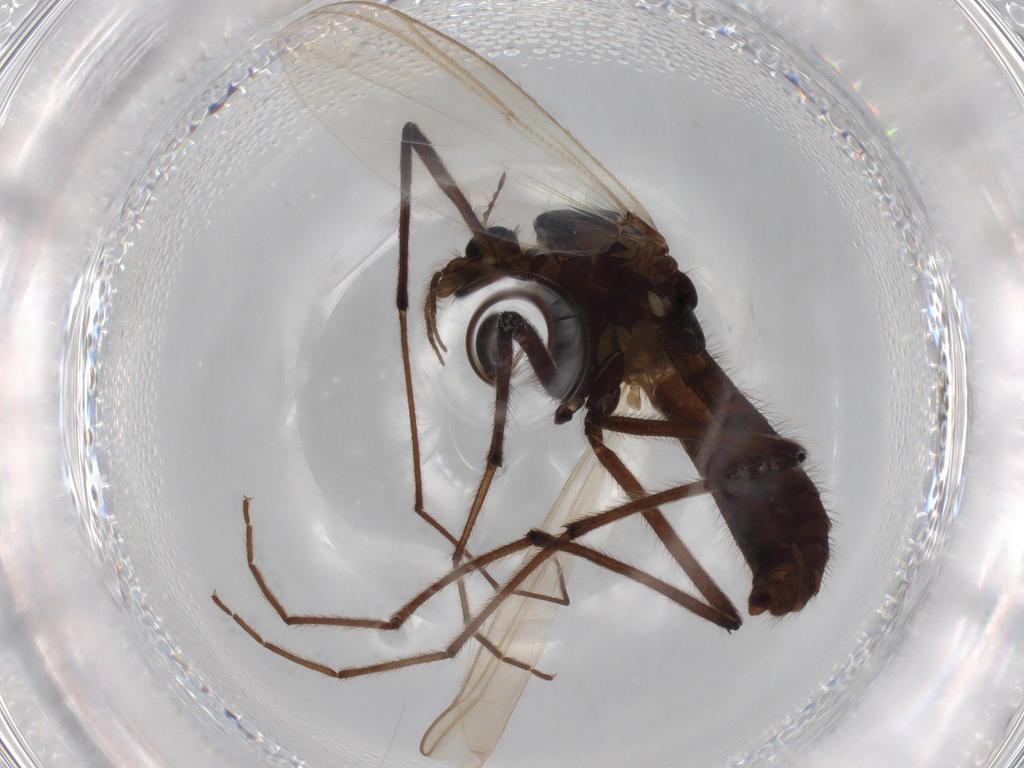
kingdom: Animalia
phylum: Arthropoda
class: Insecta
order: Diptera
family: Chironomidae
